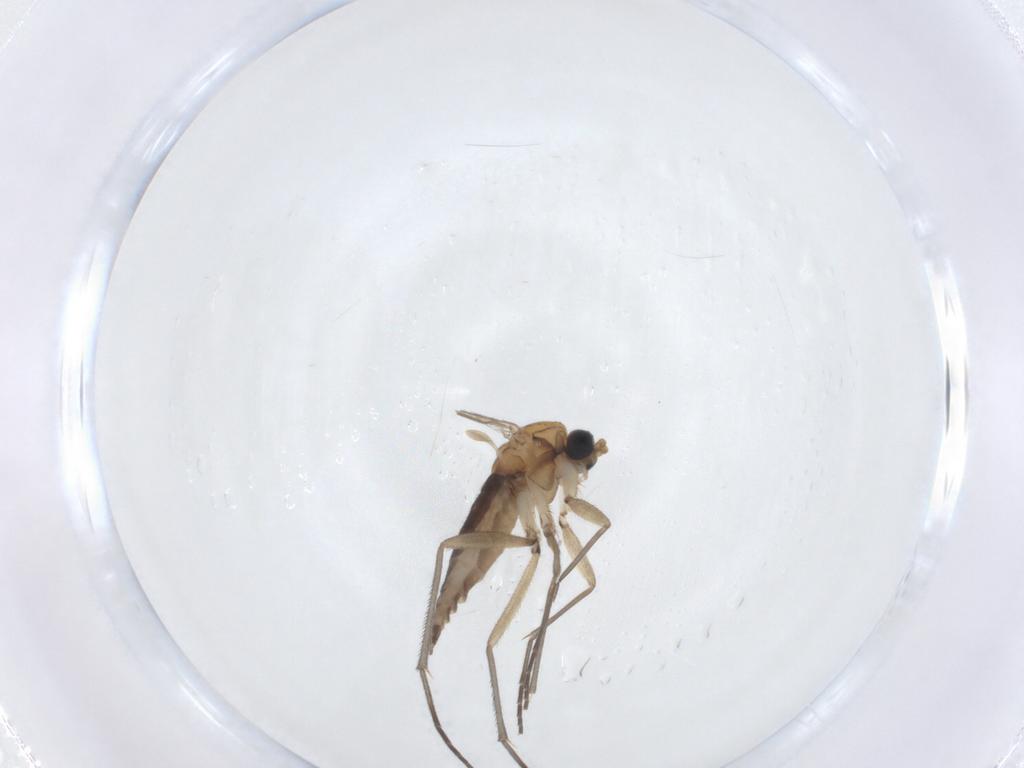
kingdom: Animalia
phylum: Arthropoda
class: Insecta
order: Diptera
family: Sciaridae
